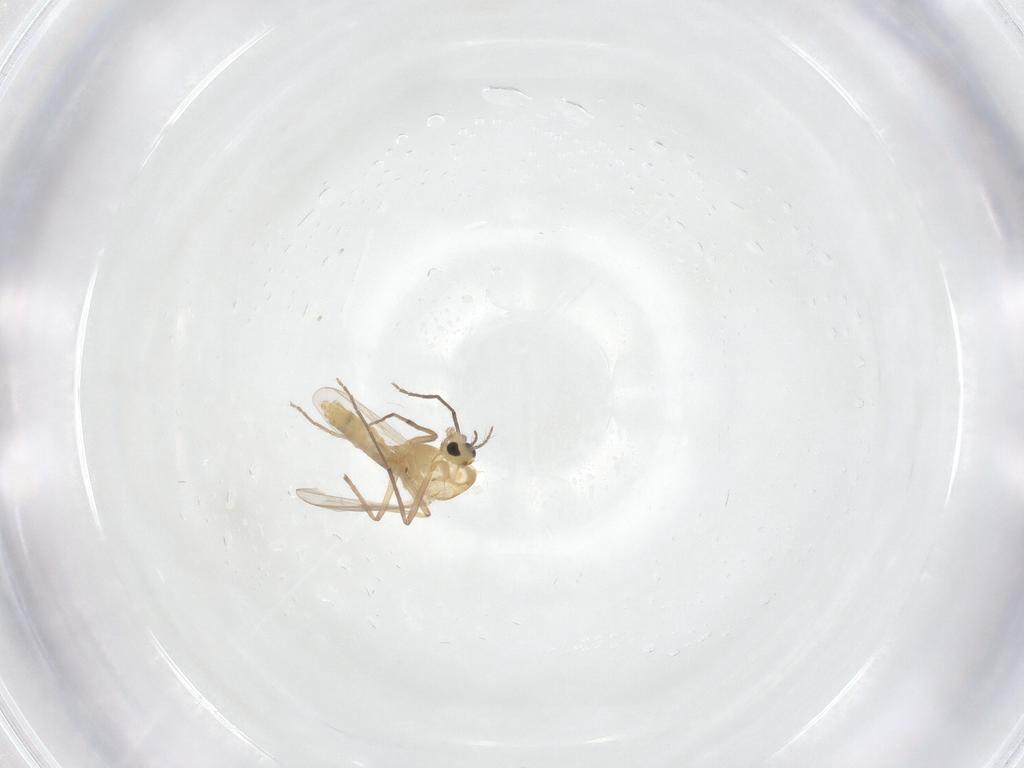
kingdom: Animalia
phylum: Arthropoda
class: Insecta
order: Diptera
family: Chironomidae
